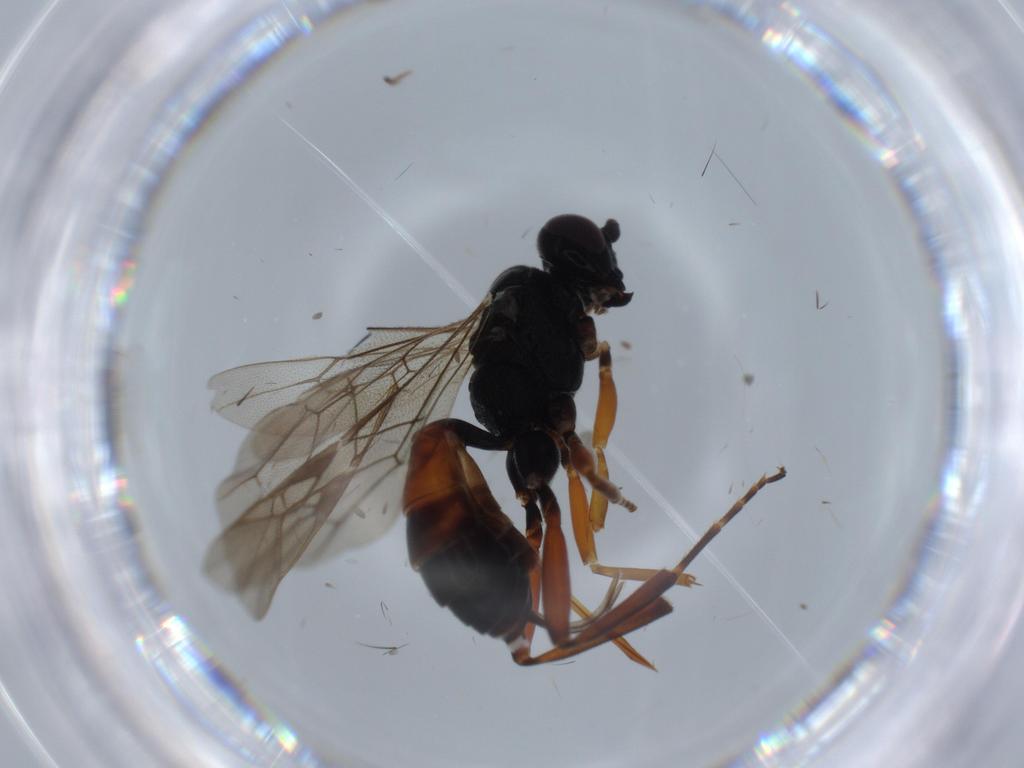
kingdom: Animalia
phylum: Arthropoda
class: Insecta
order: Hymenoptera
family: Ichneumonidae
